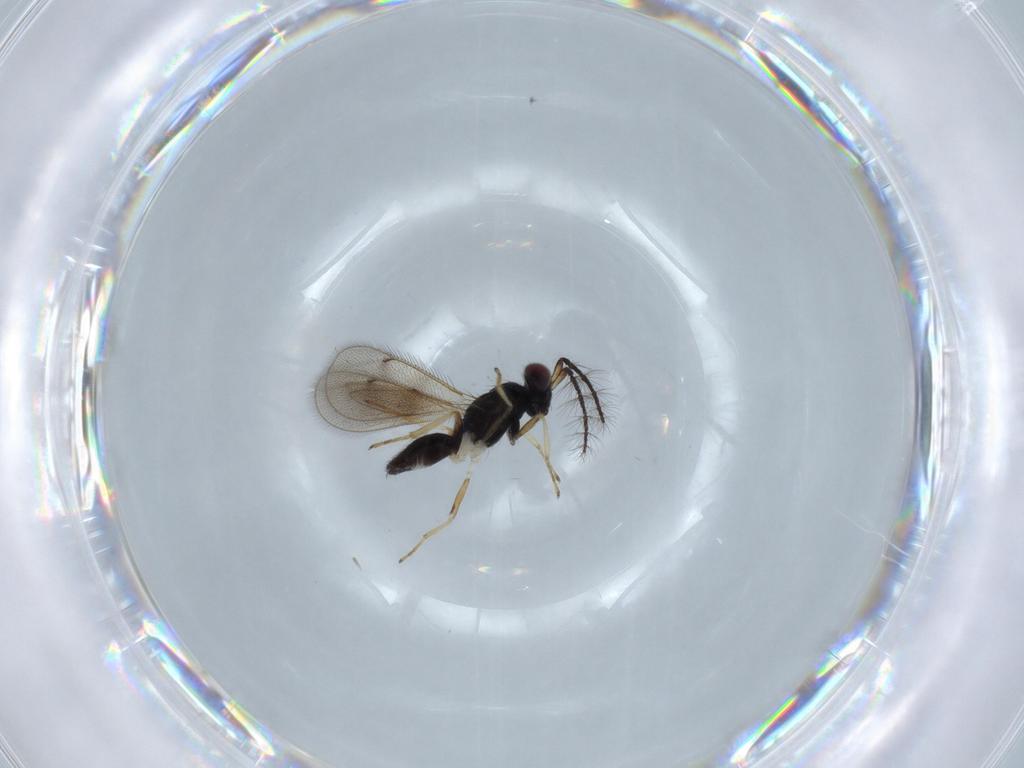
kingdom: Animalia
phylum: Arthropoda
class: Insecta
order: Hymenoptera
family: Eulophidae
